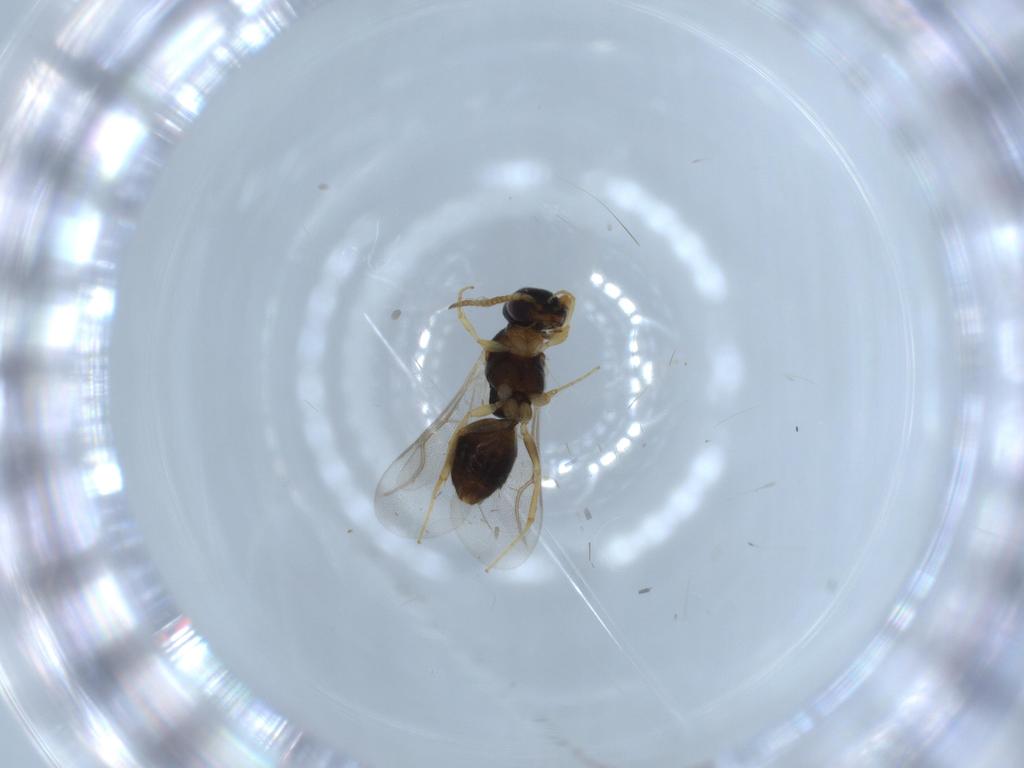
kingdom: Animalia
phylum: Arthropoda
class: Insecta
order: Hymenoptera
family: Bethylidae
